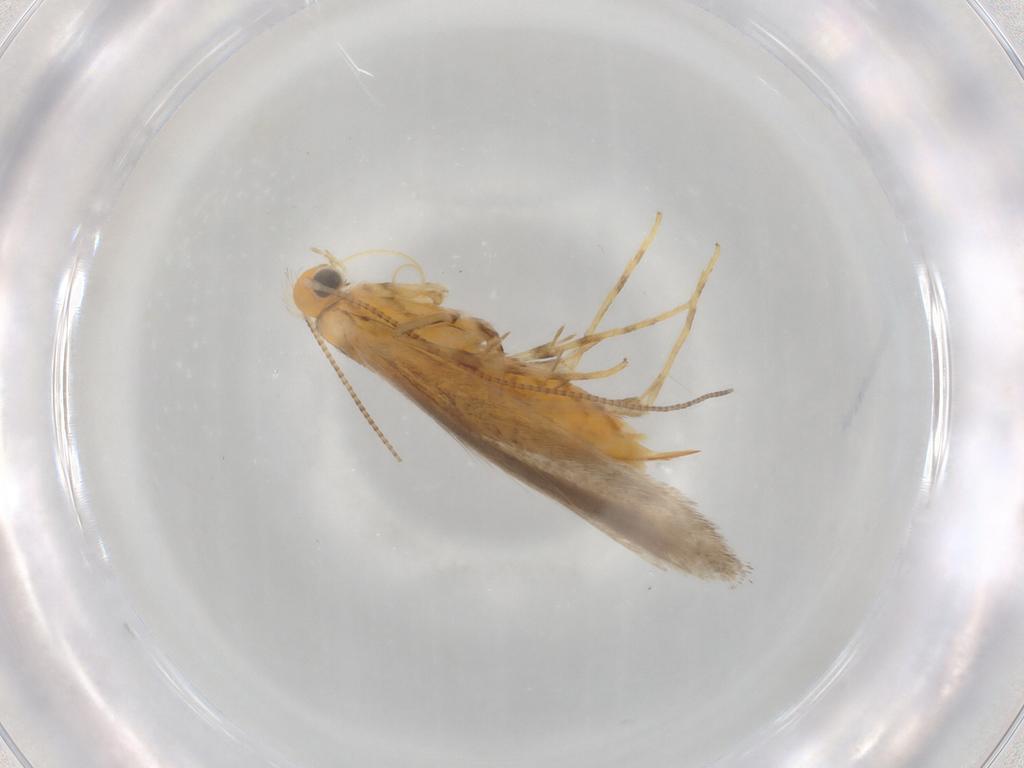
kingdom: Animalia
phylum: Arthropoda
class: Insecta
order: Lepidoptera
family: Gracillariidae
